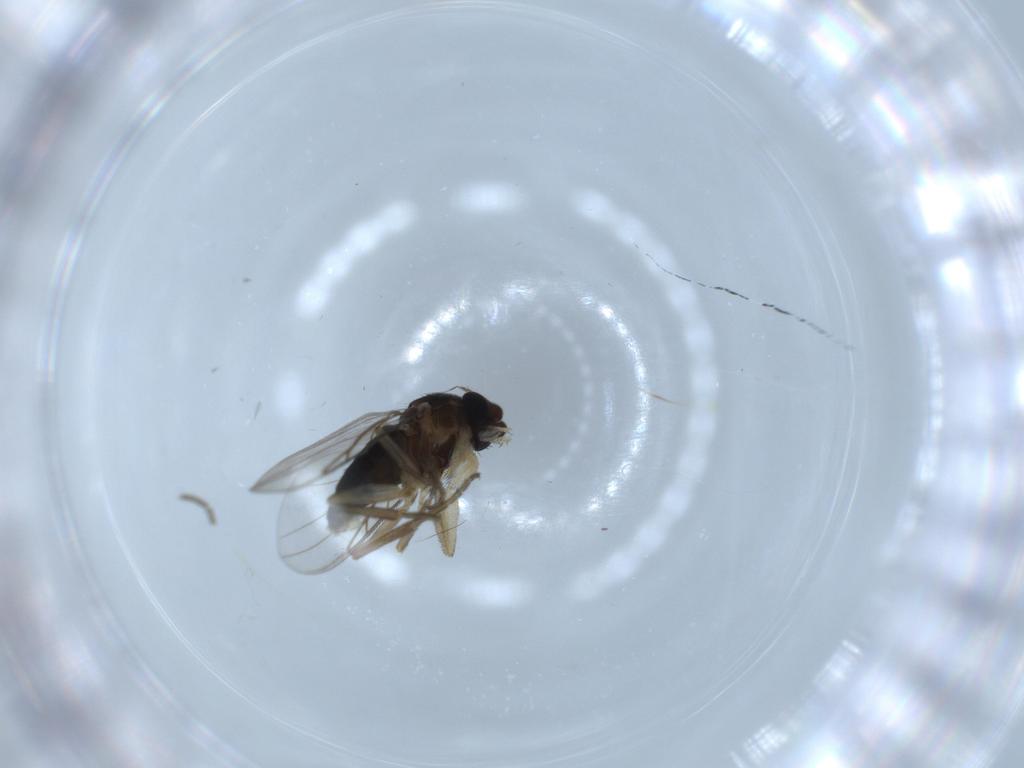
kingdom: Animalia
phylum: Arthropoda
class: Insecta
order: Diptera
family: Phoridae
